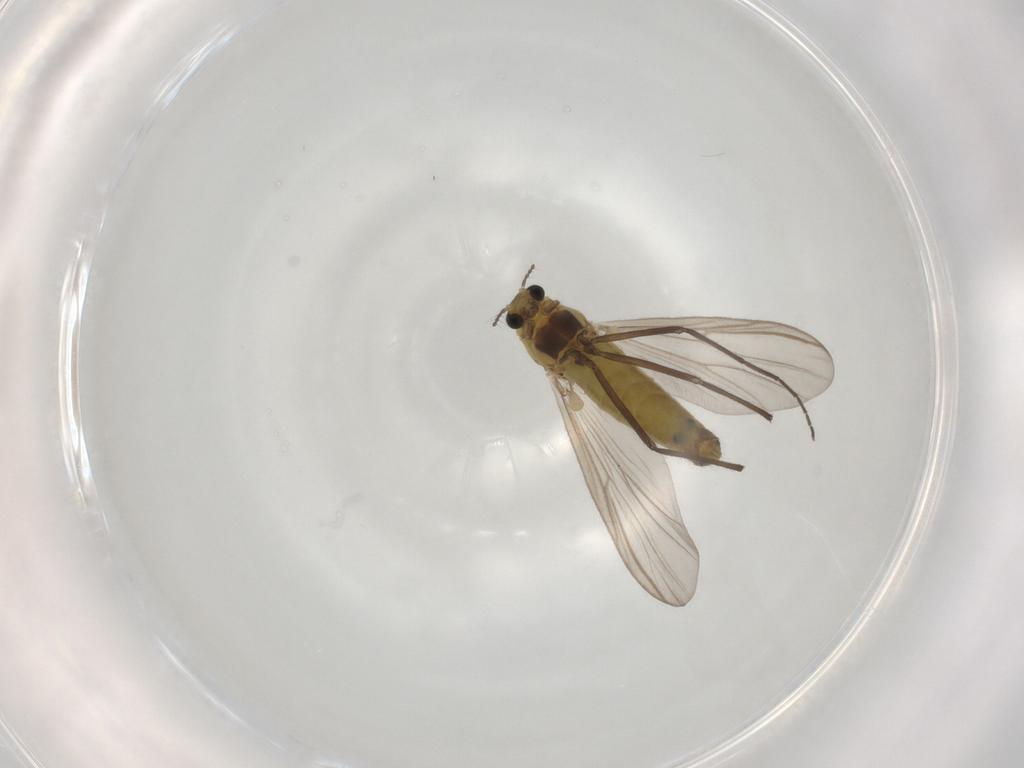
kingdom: Animalia
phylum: Arthropoda
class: Insecta
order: Diptera
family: Chironomidae
